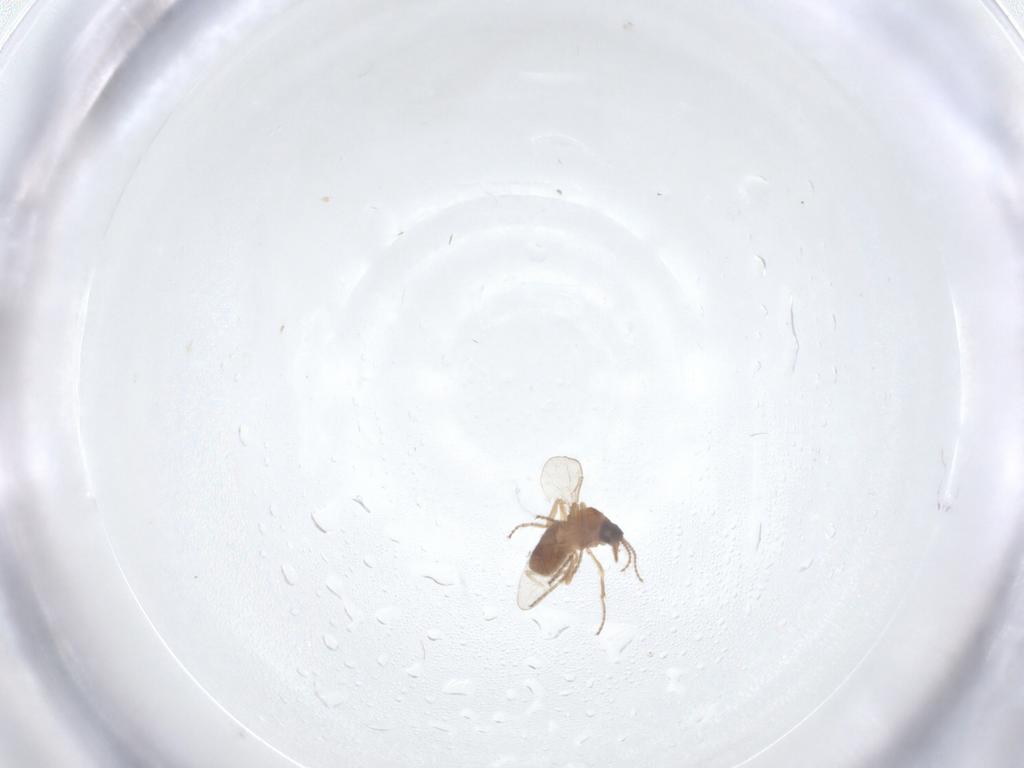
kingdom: Animalia
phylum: Arthropoda
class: Insecta
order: Diptera
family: Ceratopogonidae
